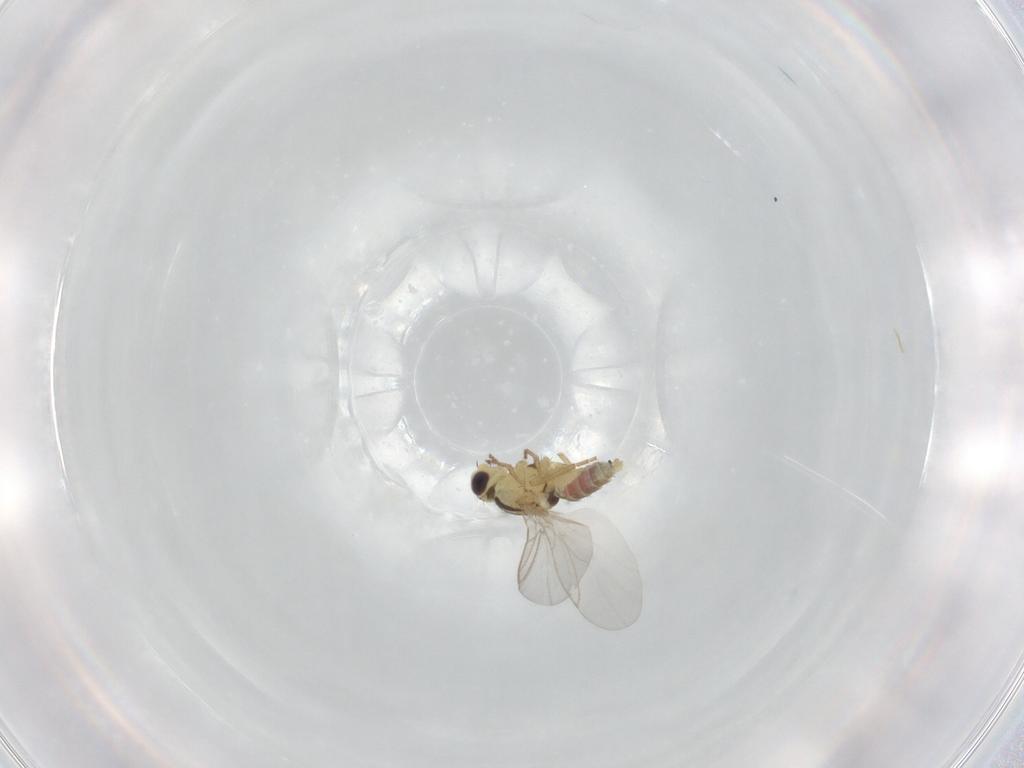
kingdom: Animalia
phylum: Arthropoda
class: Insecta
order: Diptera
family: Agromyzidae
